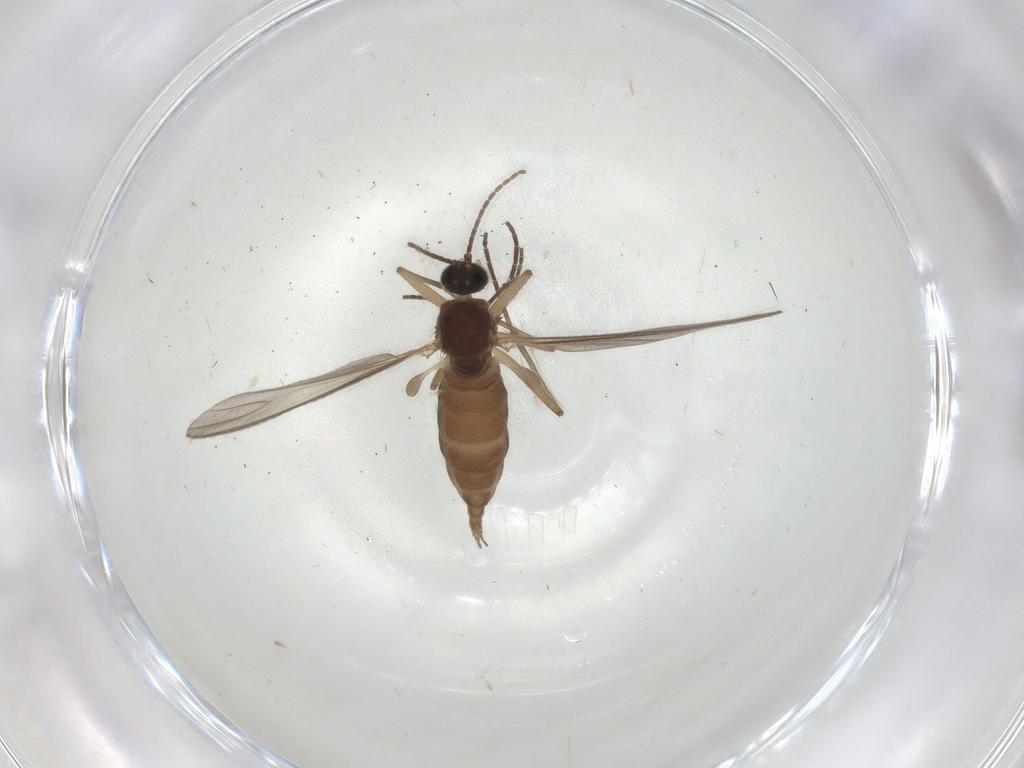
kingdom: Animalia
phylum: Arthropoda
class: Insecta
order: Diptera
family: Sciaridae
